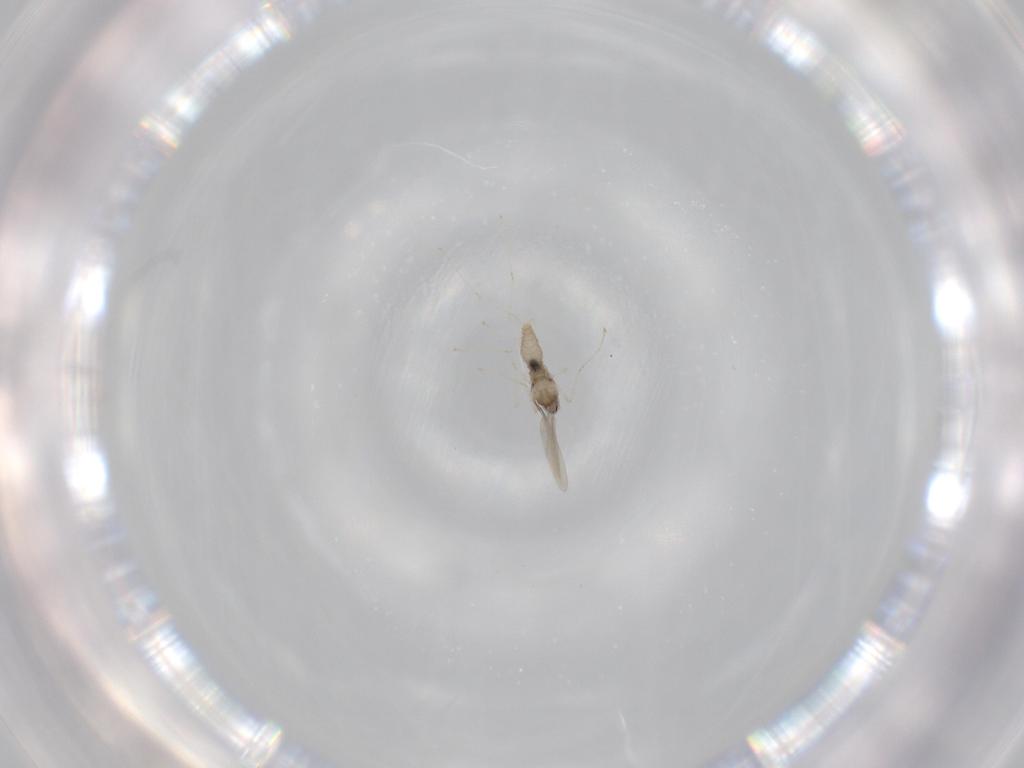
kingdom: Animalia
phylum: Arthropoda
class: Insecta
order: Diptera
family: Cecidomyiidae
